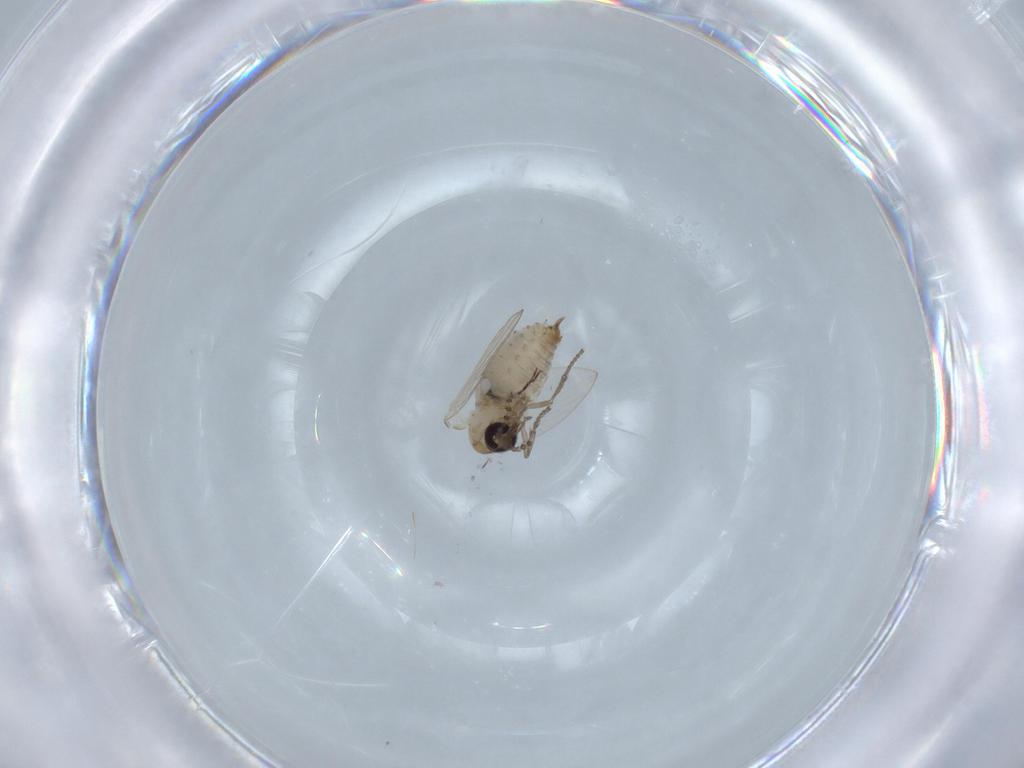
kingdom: Animalia
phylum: Arthropoda
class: Insecta
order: Diptera
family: Psychodidae
